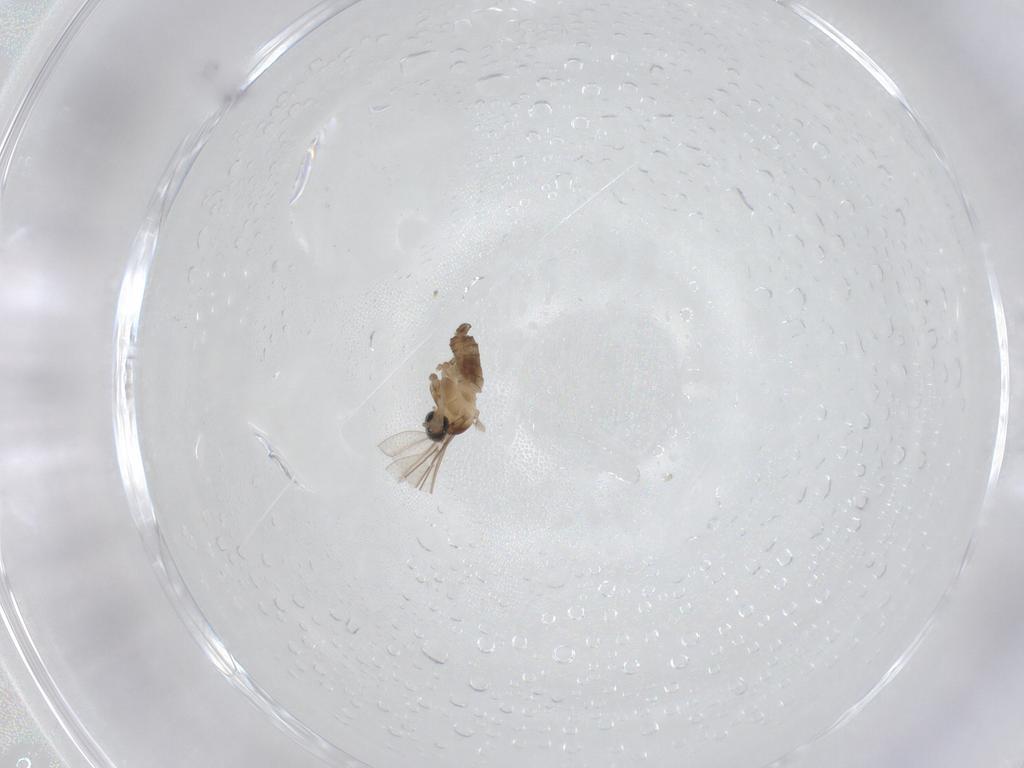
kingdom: Animalia
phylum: Arthropoda
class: Insecta
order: Diptera
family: Cecidomyiidae
